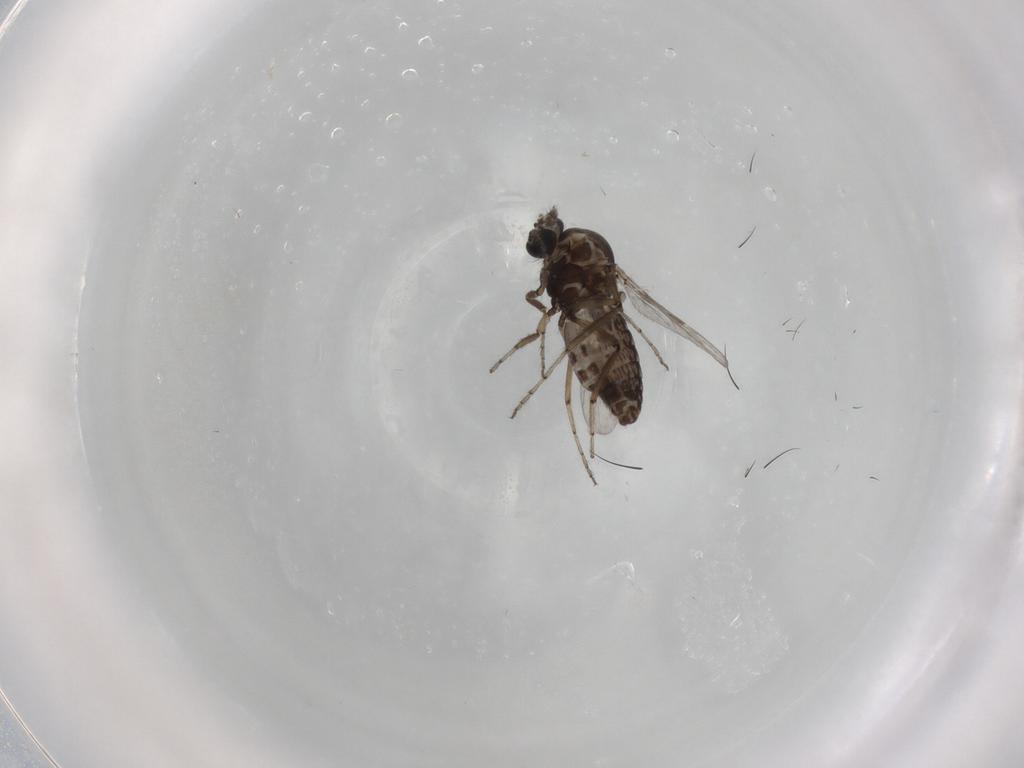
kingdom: Animalia
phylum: Arthropoda
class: Insecta
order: Diptera
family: Ceratopogonidae
